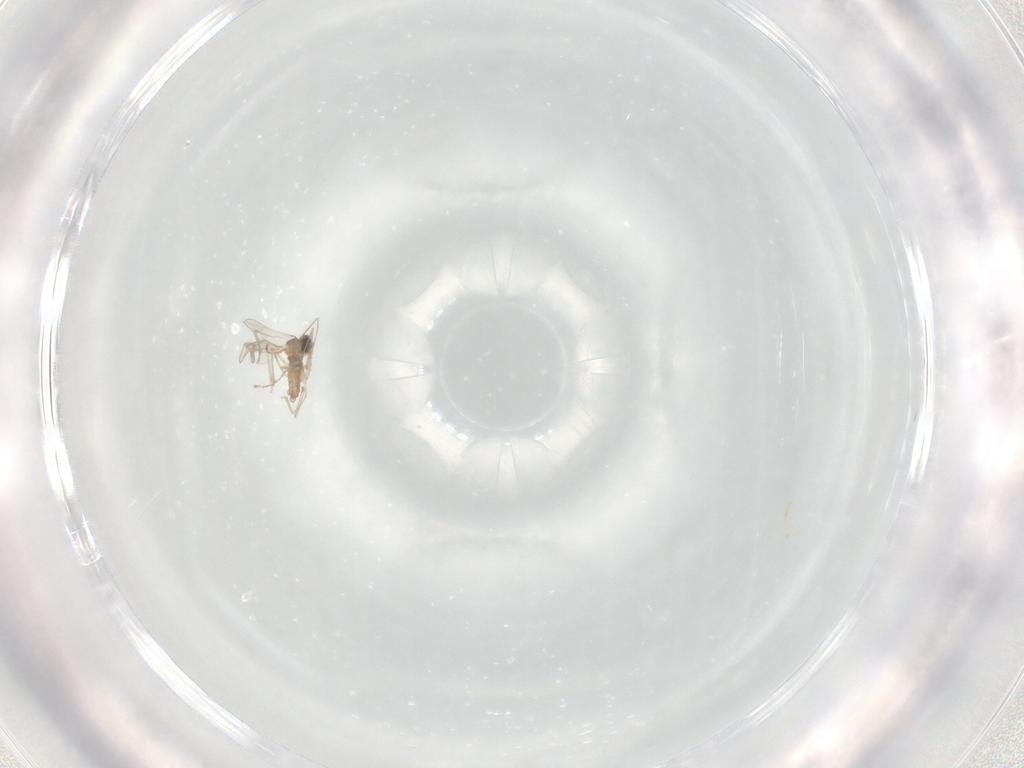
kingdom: Animalia
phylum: Arthropoda
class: Insecta
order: Diptera
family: Cecidomyiidae
